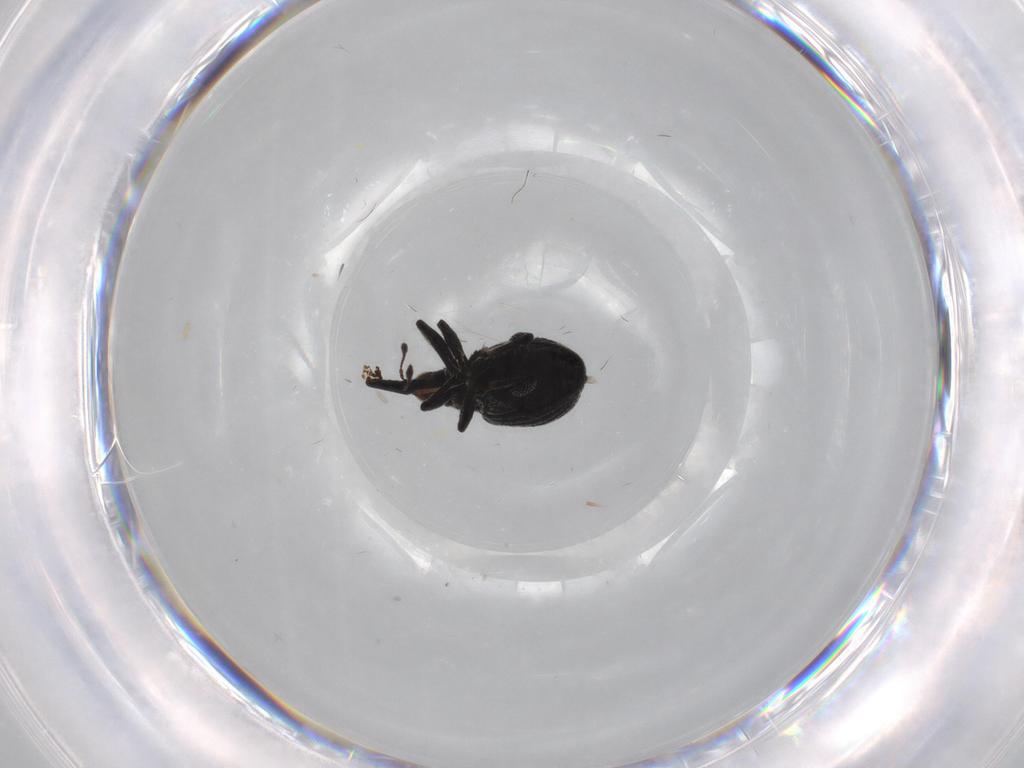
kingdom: Animalia
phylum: Arthropoda
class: Insecta
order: Coleoptera
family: Brentidae
